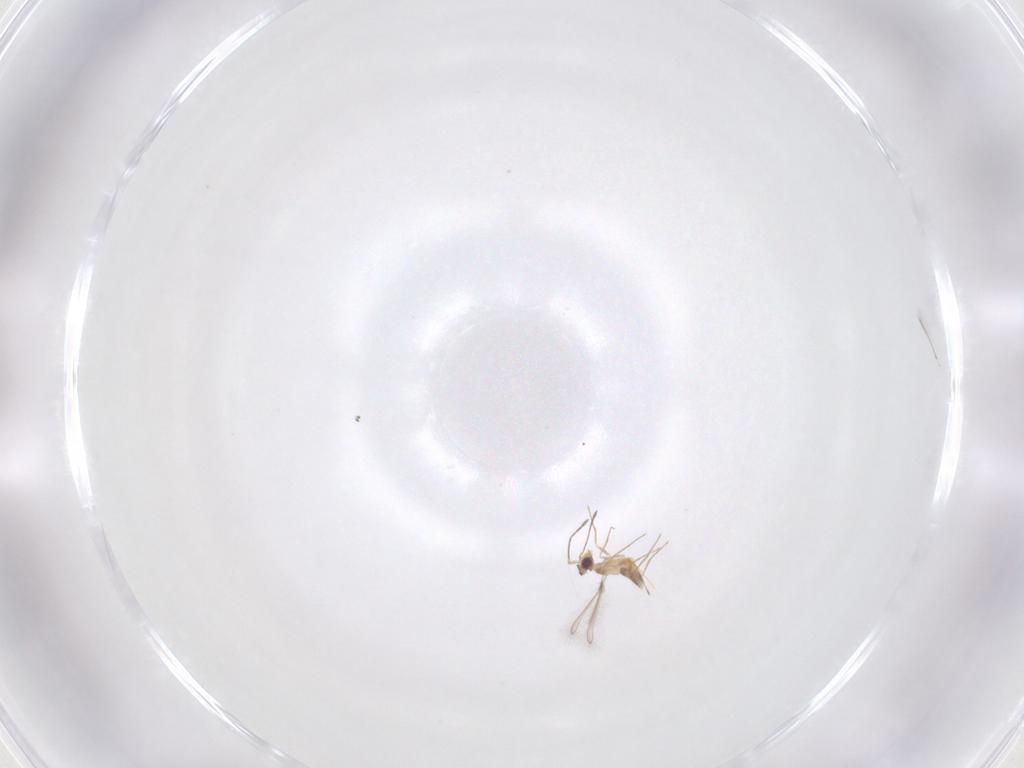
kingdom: Animalia
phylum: Arthropoda
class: Insecta
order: Hymenoptera
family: Mymaridae
